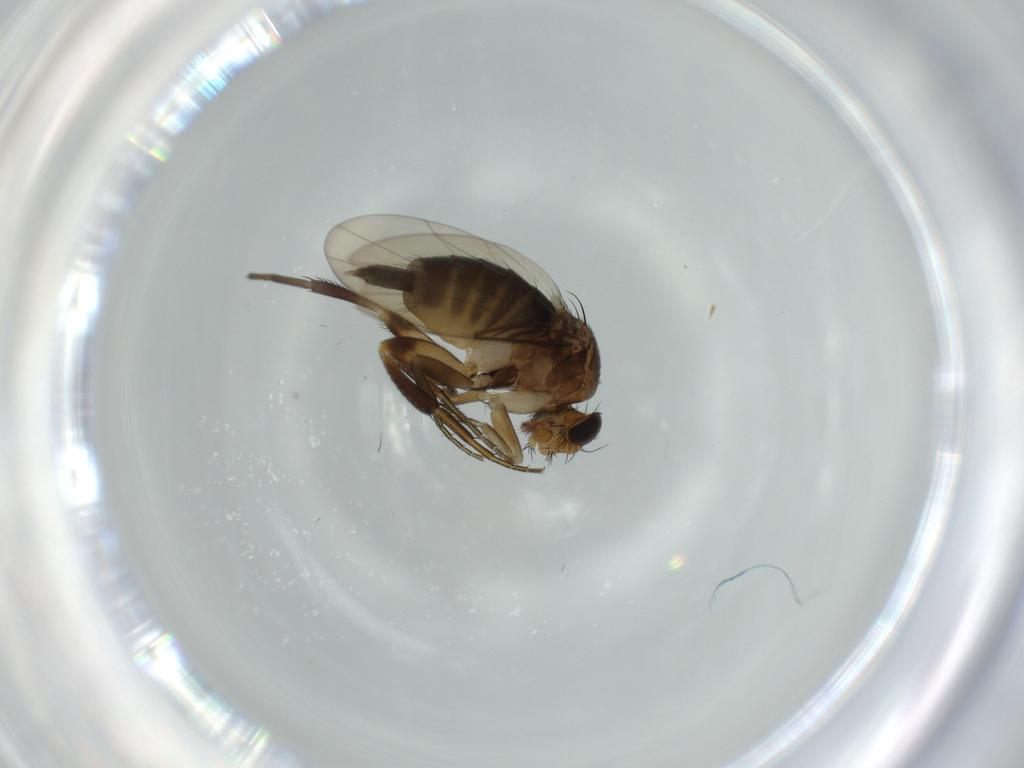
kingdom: Animalia
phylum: Arthropoda
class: Insecta
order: Diptera
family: Phoridae
